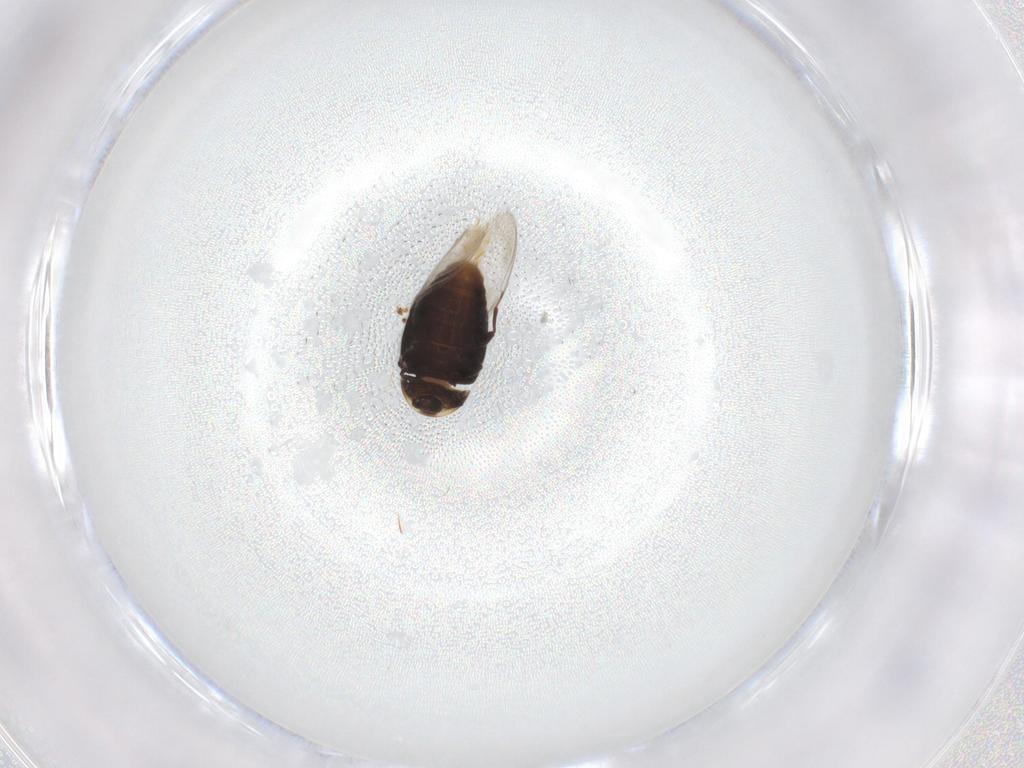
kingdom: Animalia
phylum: Arthropoda
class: Insecta
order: Coleoptera
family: Corylophidae
